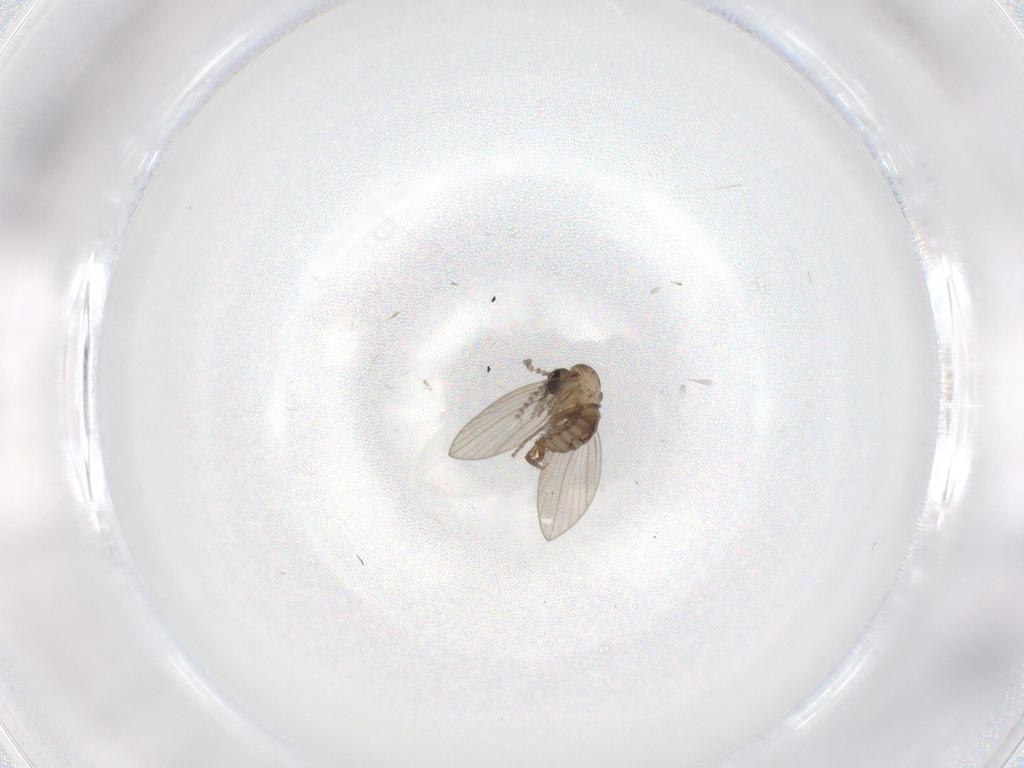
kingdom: Animalia
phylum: Arthropoda
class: Insecta
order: Diptera
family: Psychodidae
